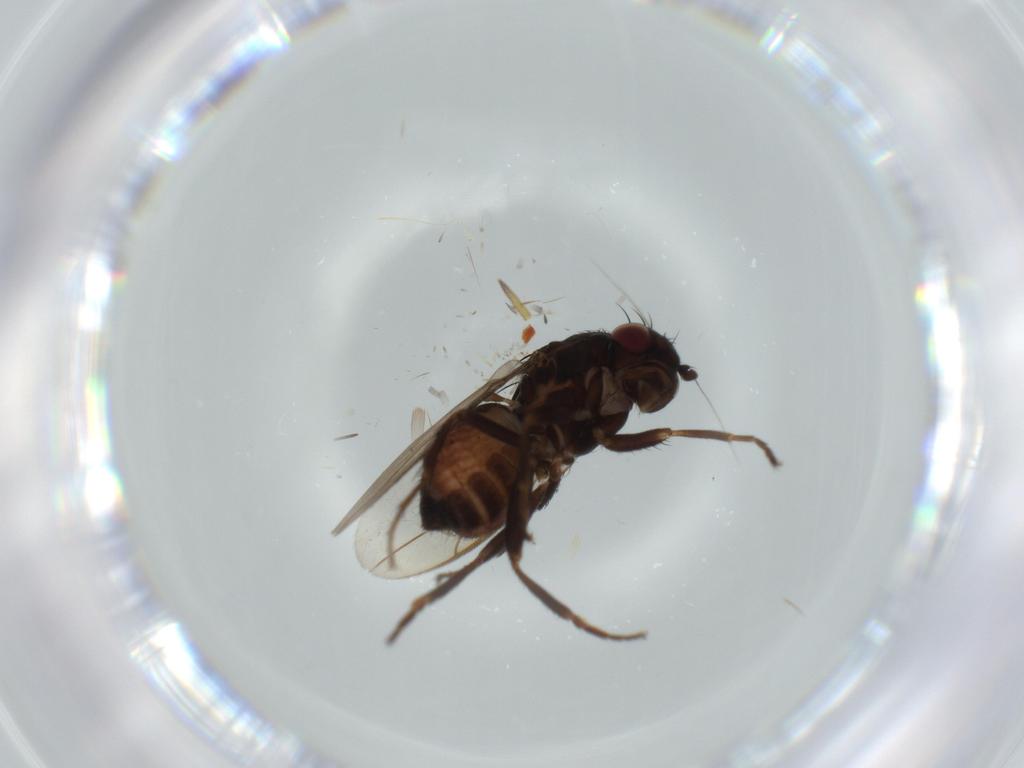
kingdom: Animalia
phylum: Arthropoda
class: Insecta
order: Diptera
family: Sphaeroceridae
